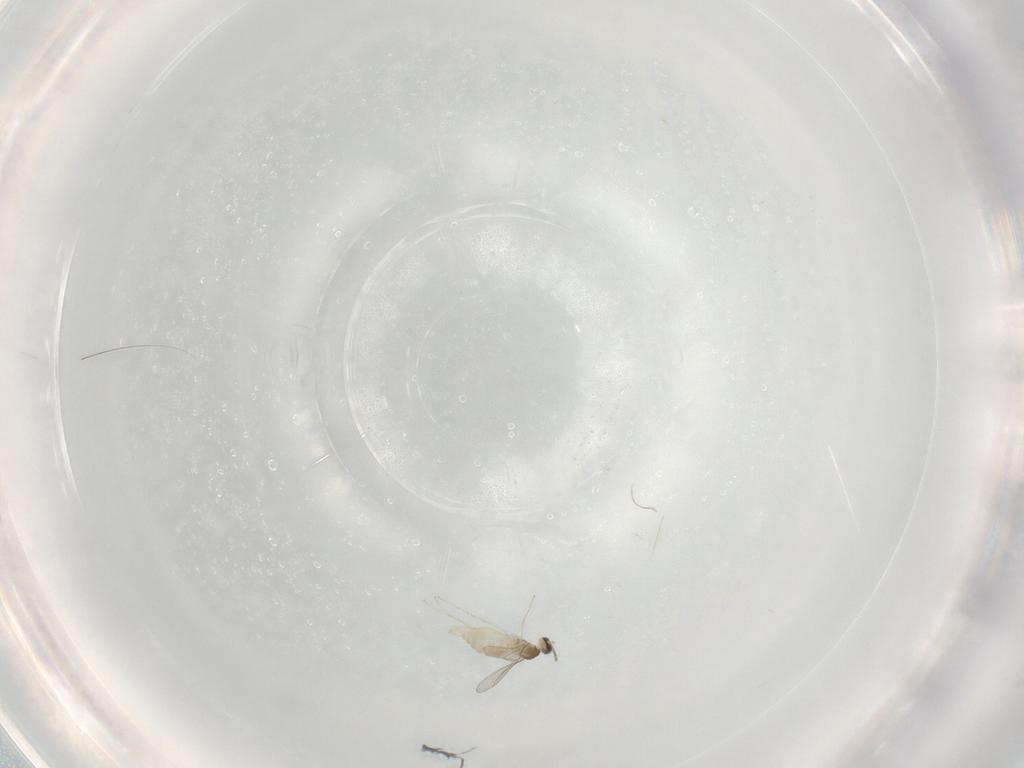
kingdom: Animalia
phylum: Arthropoda
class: Insecta
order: Diptera
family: Cecidomyiidae
